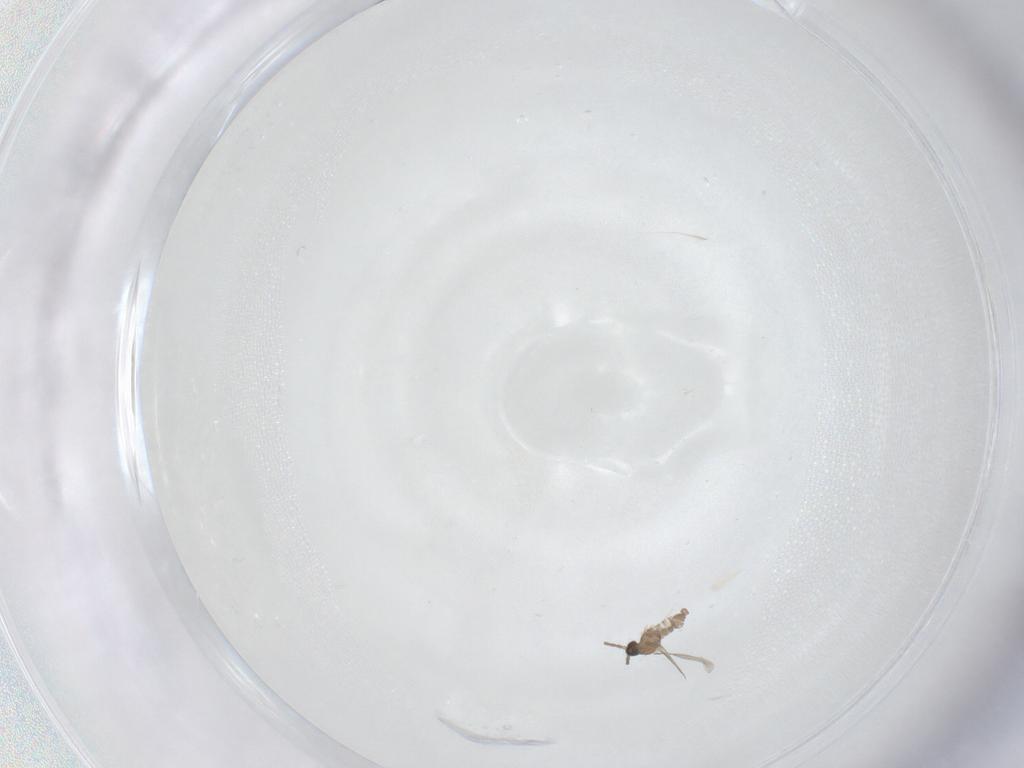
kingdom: Animalia
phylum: Arthropoda
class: Insecta
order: Diptera
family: Cecidomyiidae
